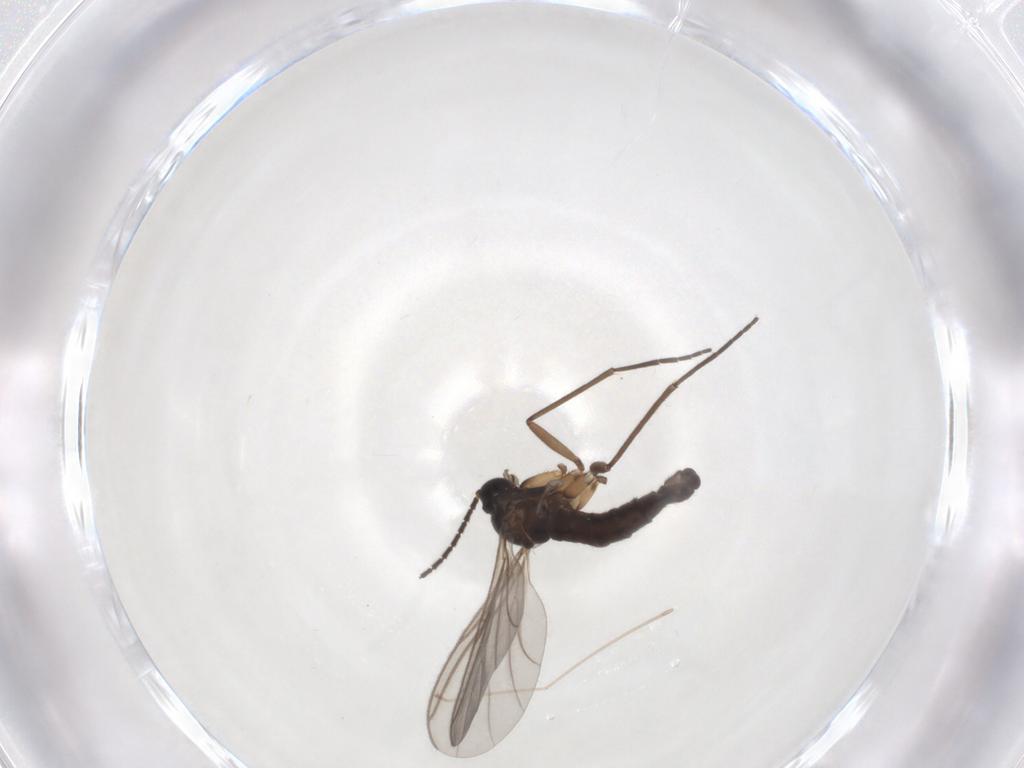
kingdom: Animalia
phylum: Arthropoda
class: Insecta
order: Diptera
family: Sciaridae
